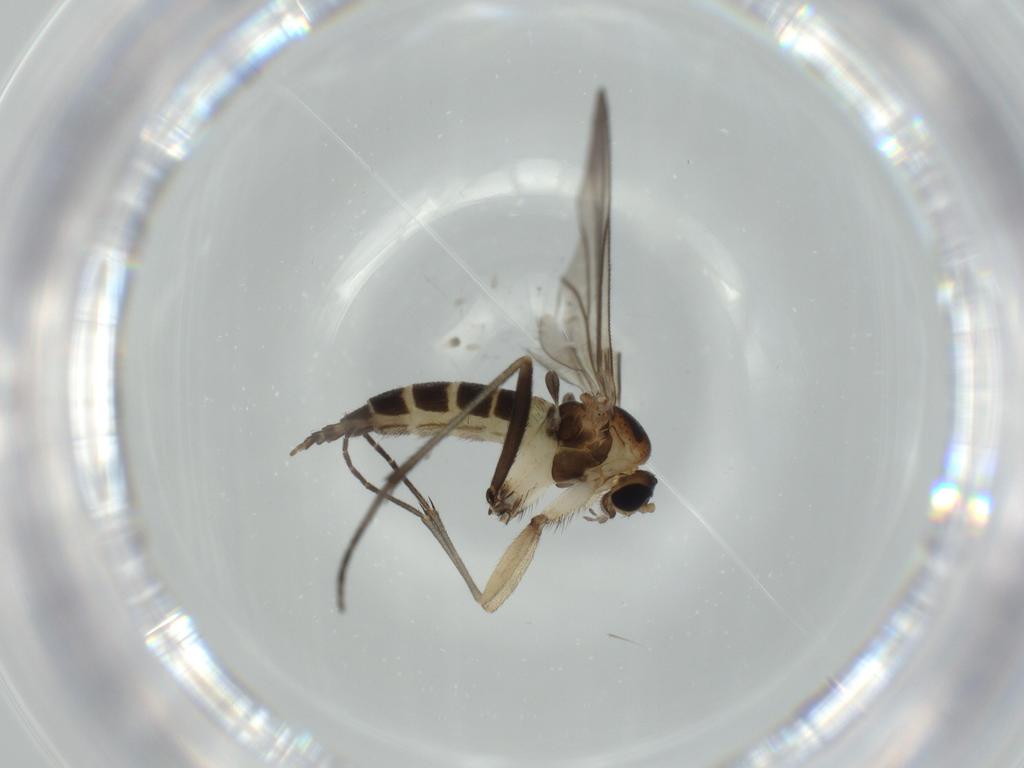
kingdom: Animalia
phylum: Arthropoda
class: Insecta
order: Diptera
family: Sciaridae
